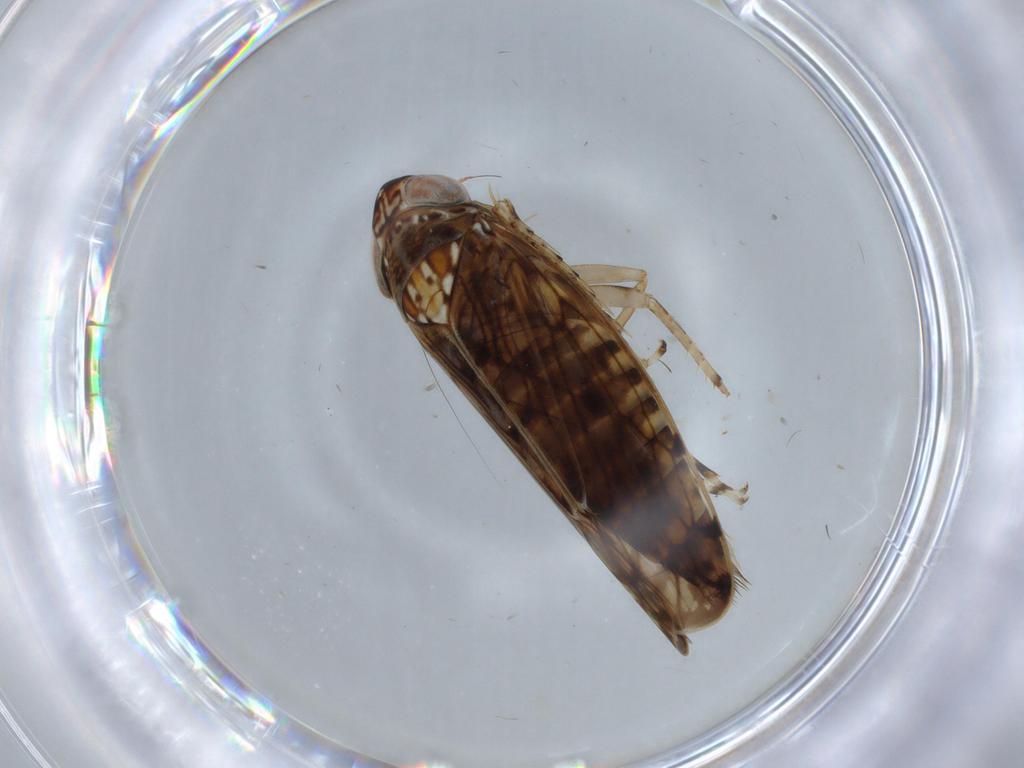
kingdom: Animalia
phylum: Arthropoda
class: Insecta
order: Hemiptera
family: Cicadellidae
